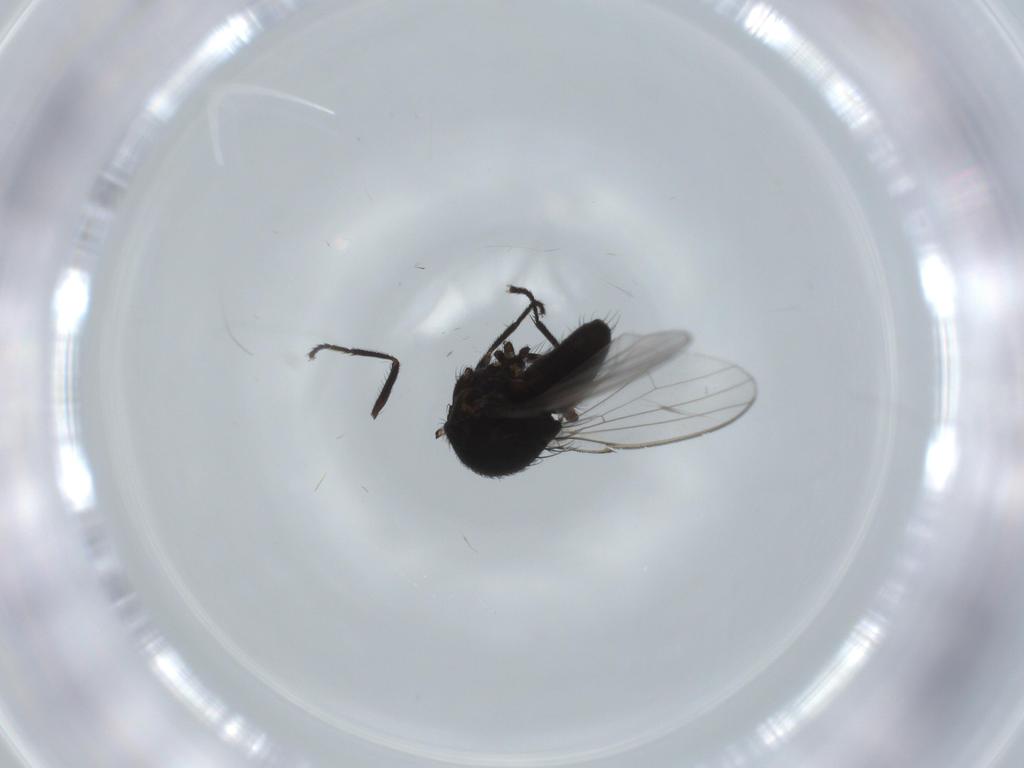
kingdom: Animalia
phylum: Arthropoda
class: Insecta
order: Diptera
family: Milichiidae
